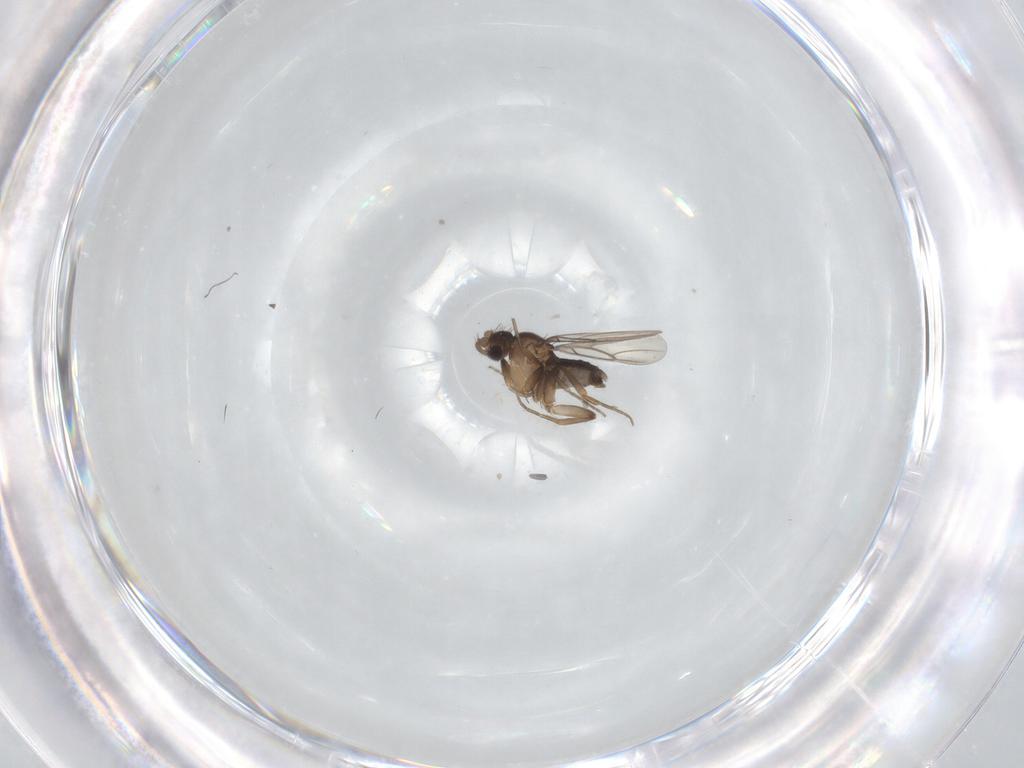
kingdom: Animalia
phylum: Arthropoda
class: Insecta
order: Diptera
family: Phoridae
